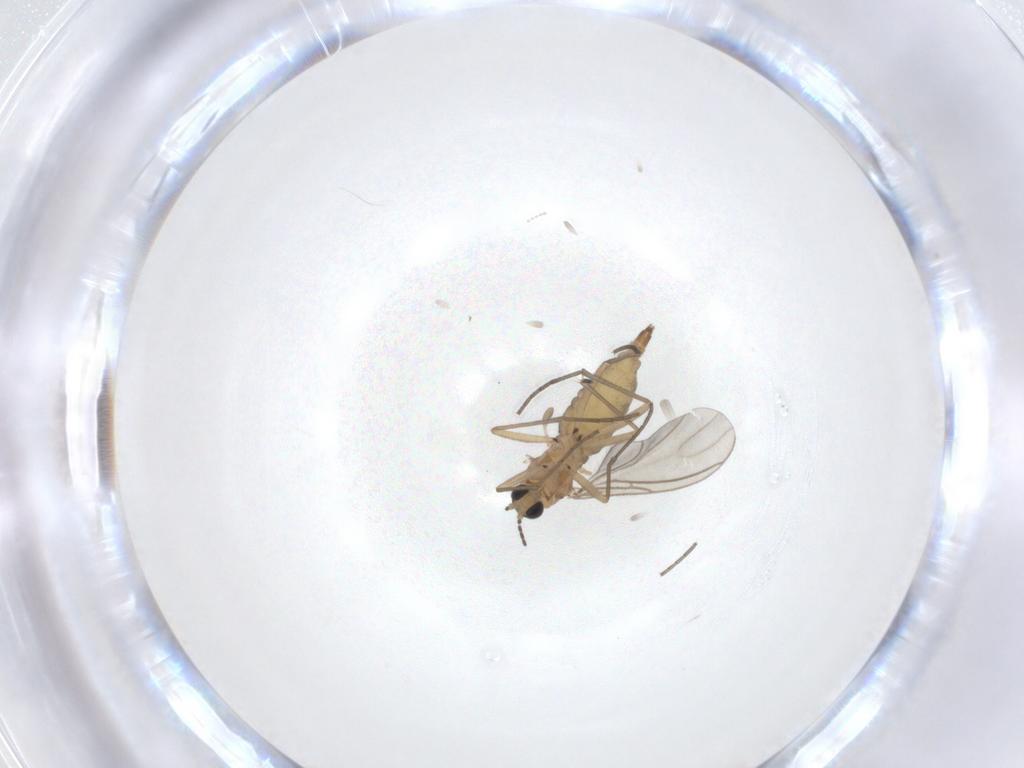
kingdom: Animalia
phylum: Arthropoda
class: Insecta
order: Diptera
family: Sciaridae
